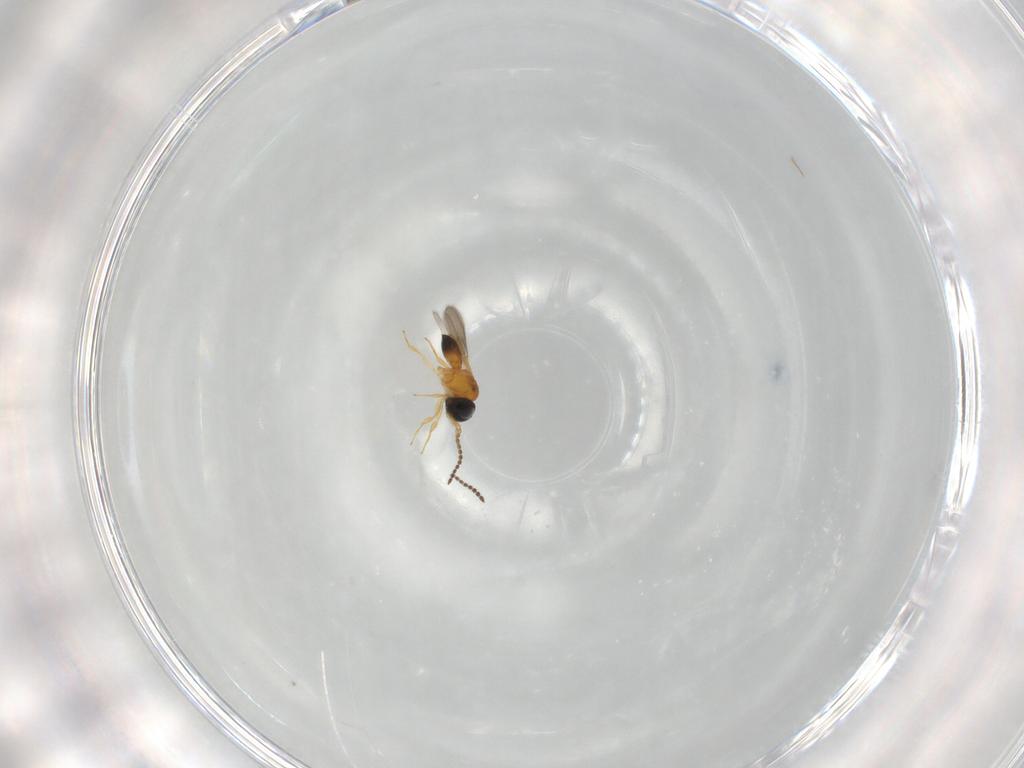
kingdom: Animalia
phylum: Arthropoda
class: Insecta
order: Hymenoptera
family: Scelionidae
